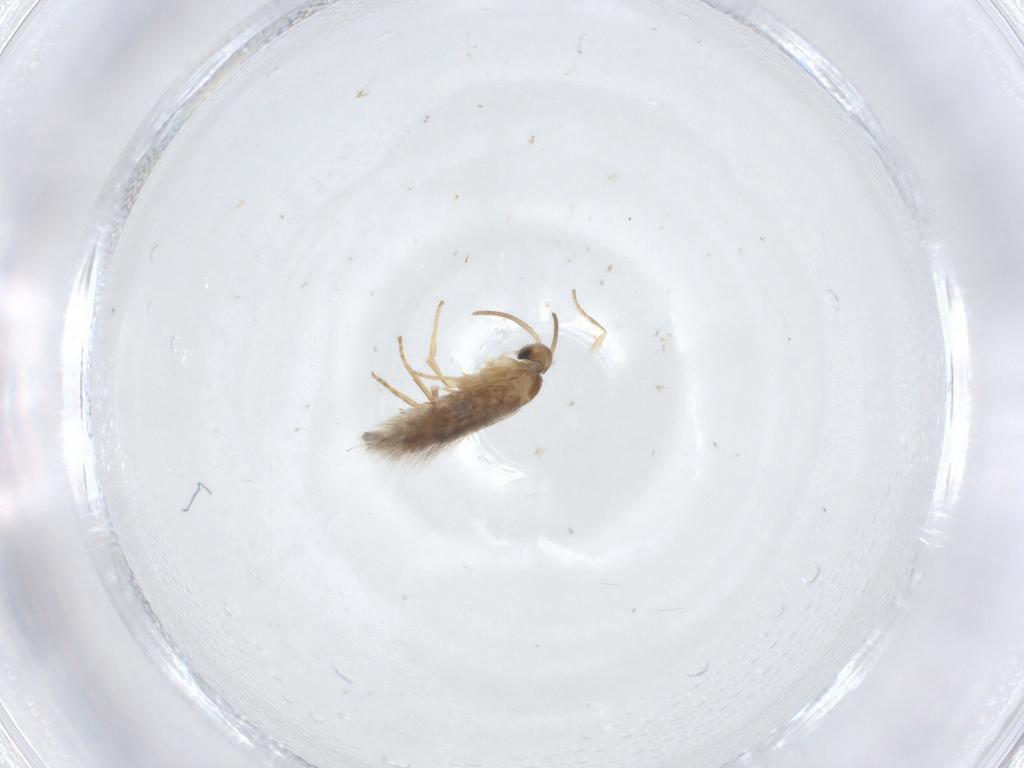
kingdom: Animalia
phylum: Arthropoda
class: Insecta
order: Lepidoptera
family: Heliozelidae
